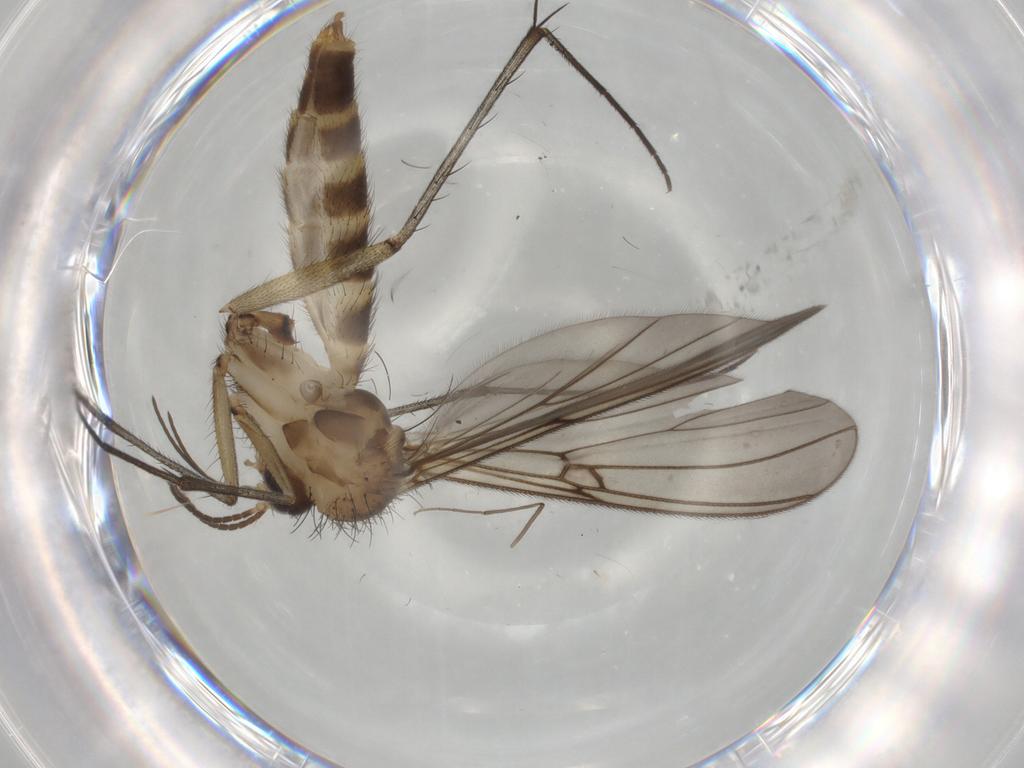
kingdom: Animalia
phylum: Arthropoda
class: Insecta
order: Diptera
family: Mycetophilidae
